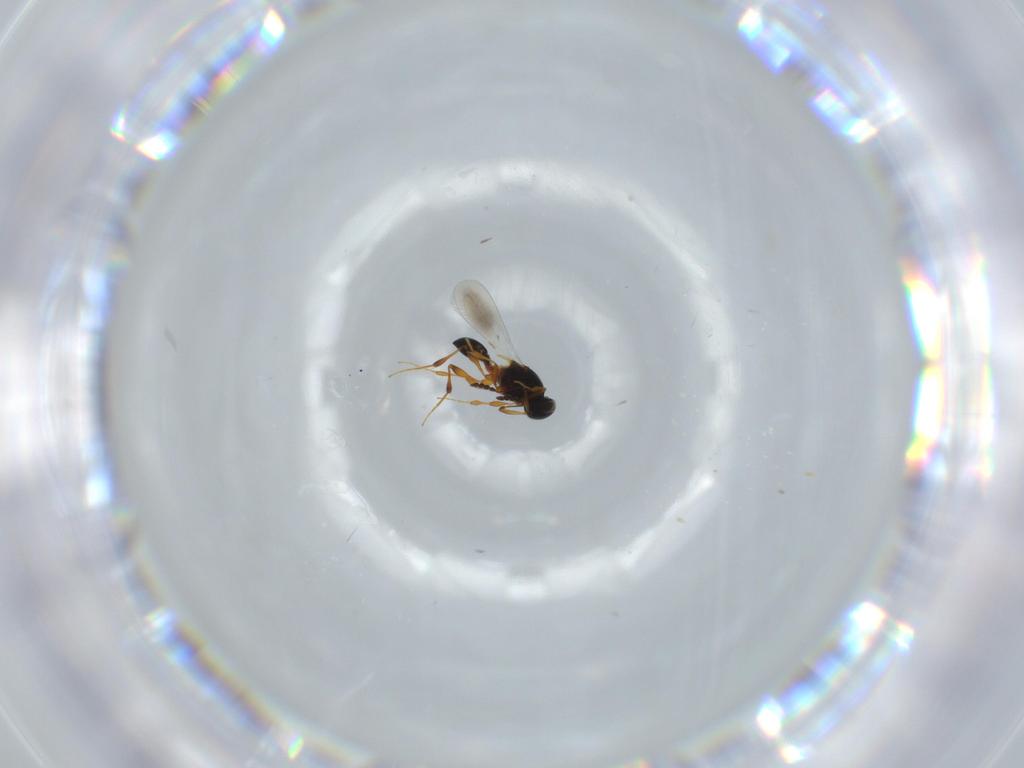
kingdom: Animalia
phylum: Arthropoda
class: Insecta
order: Hymenoptera
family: Platygastridae
